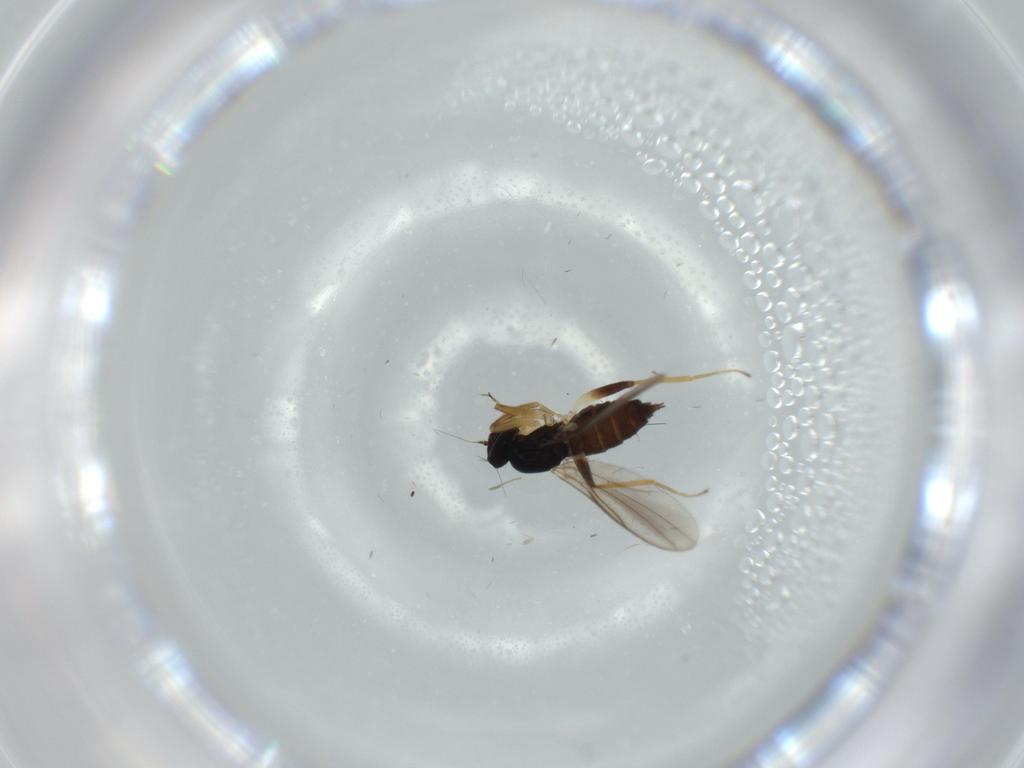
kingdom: Animalia
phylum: Arthropoda
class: Insecta
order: Diptera
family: Hybotidae
